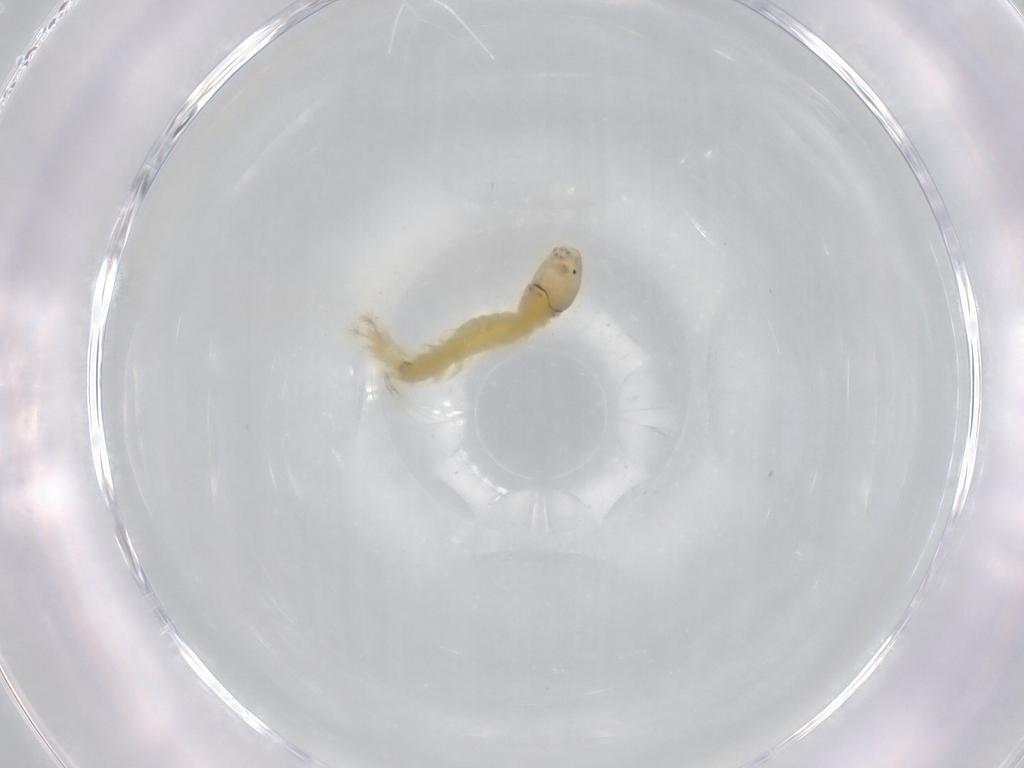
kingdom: Animalia
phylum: Arthropoda
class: Insecta
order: Diptera
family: Chironomidae
